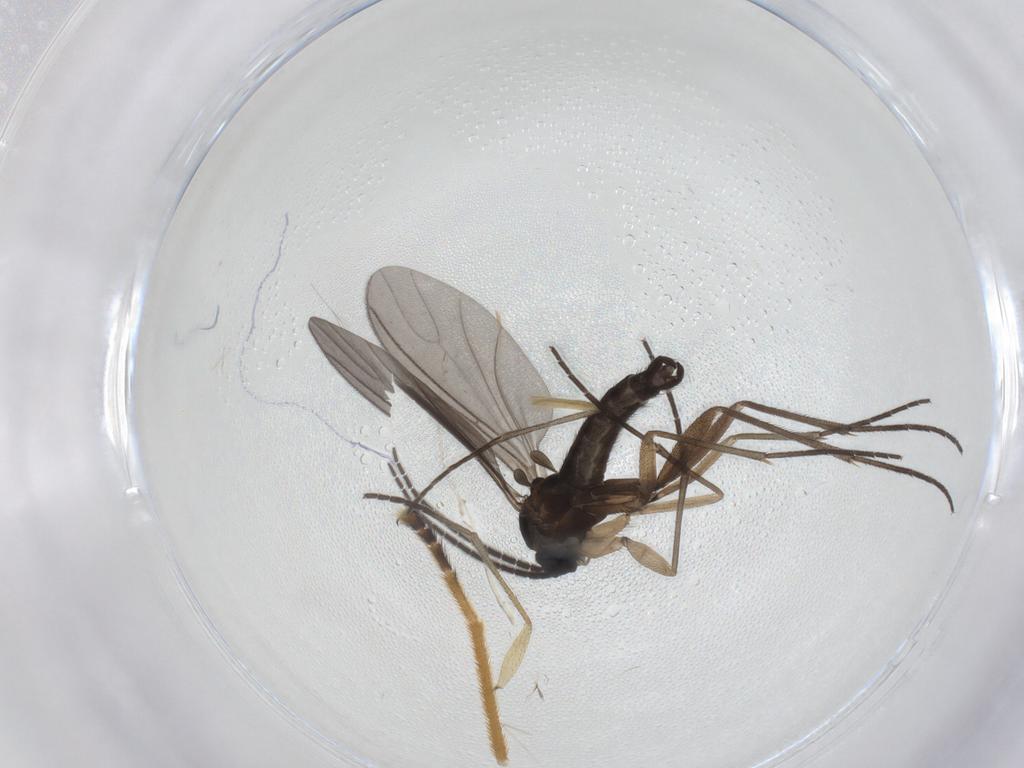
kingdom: Animalia
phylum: Arthropoda
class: Insecta
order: Diptera
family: Sciaridae
